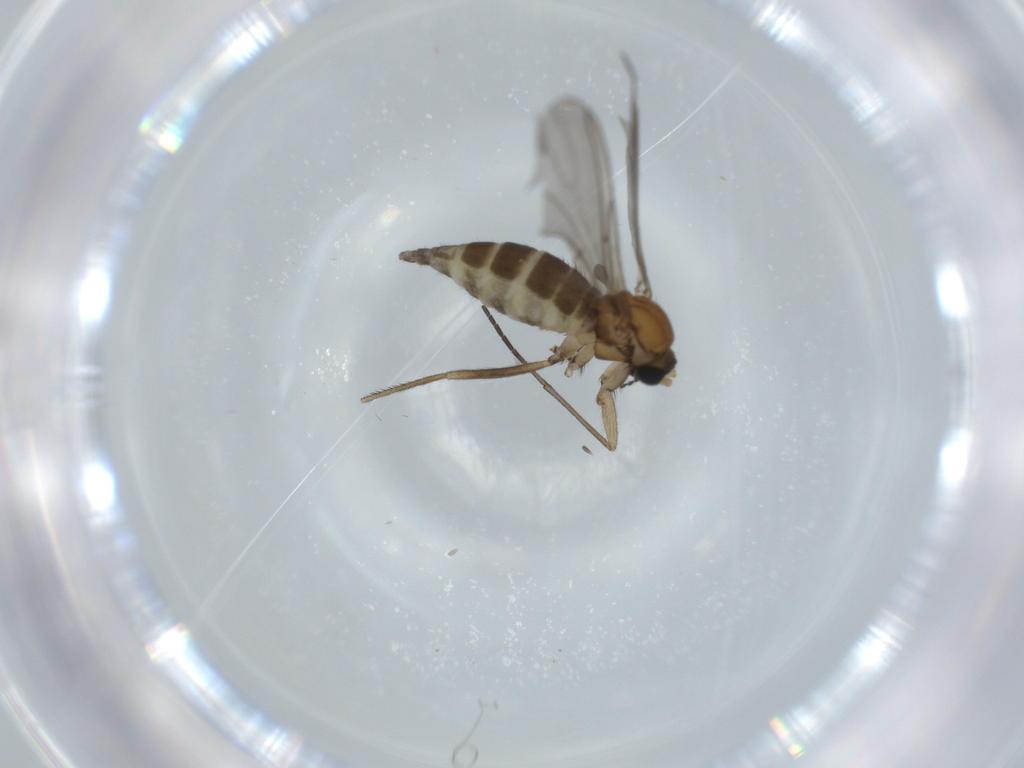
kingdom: Animalia
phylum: Arthropoda
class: Insecta
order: Diptera
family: Sciaridae
